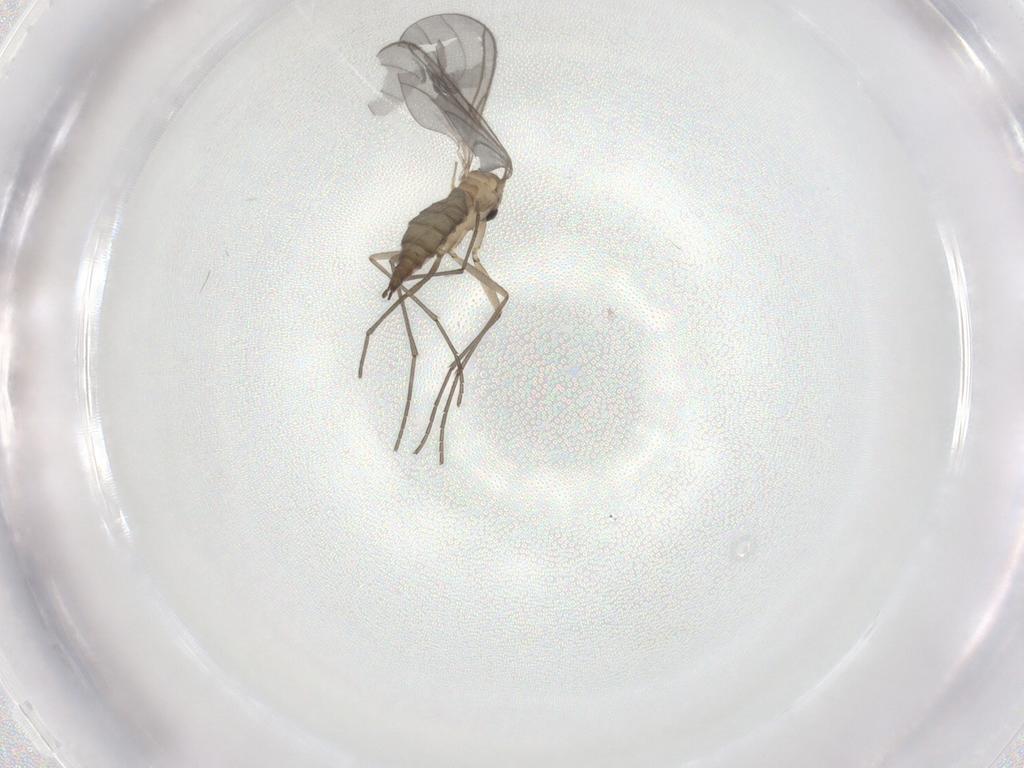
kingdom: Animalia
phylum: Arthropoda
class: Insecta
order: Diptera
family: Sciaridae
